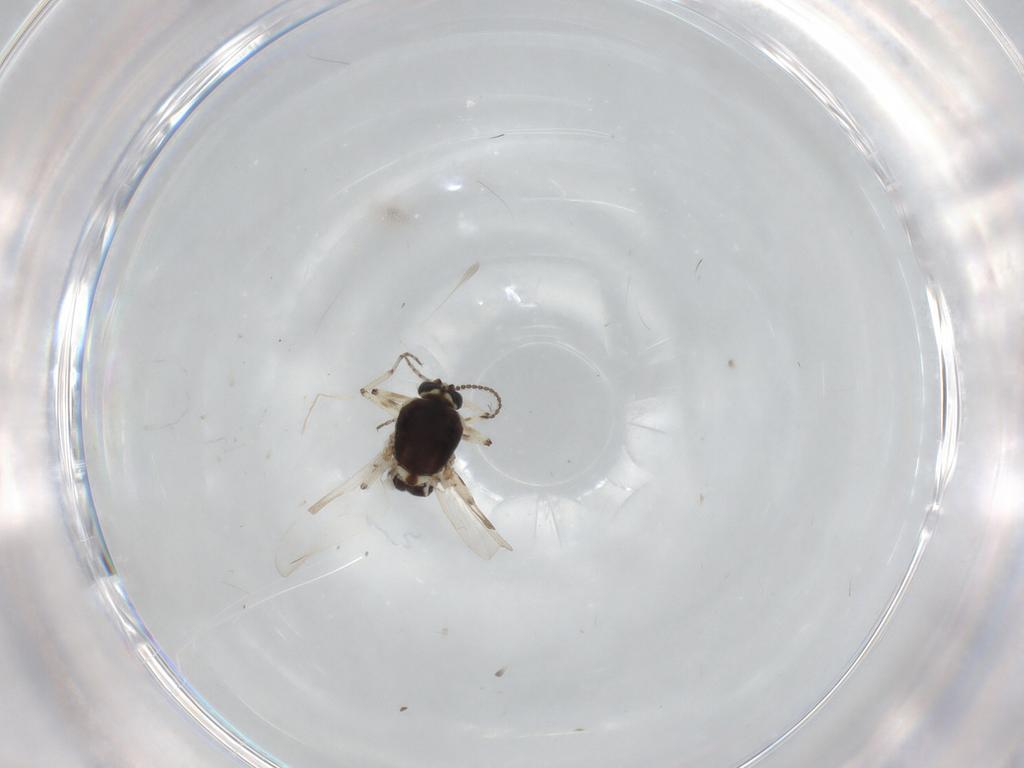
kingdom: Animalia
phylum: Arthropoda
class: Insecta
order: Diptera
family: Ceratopogonidae
